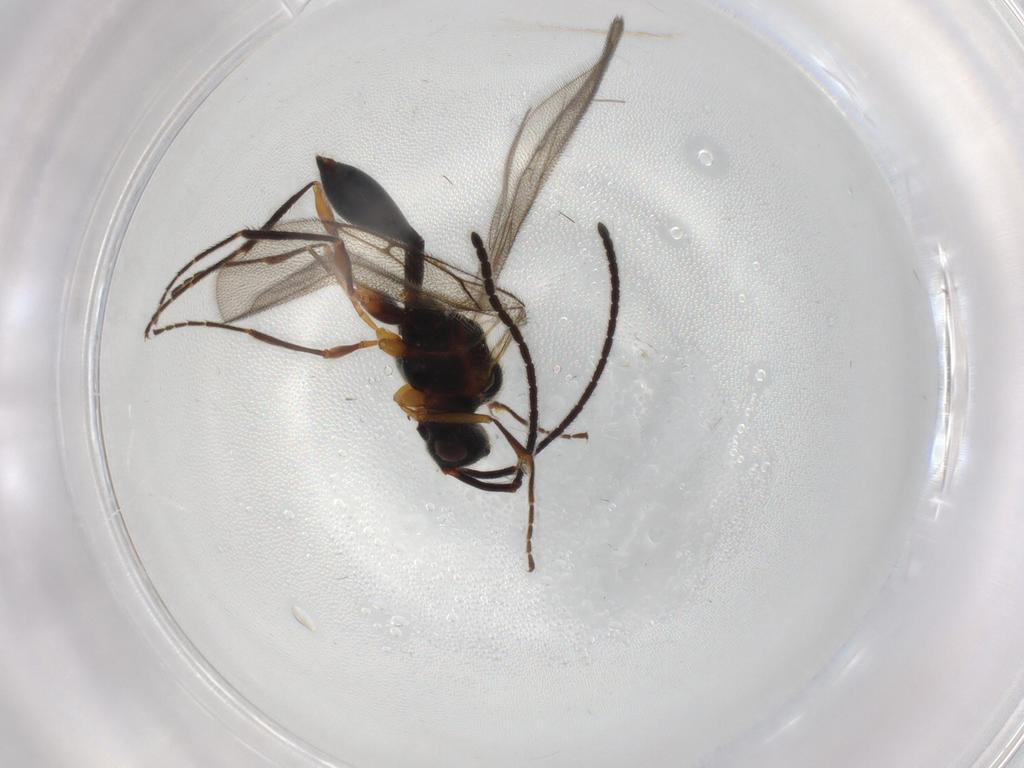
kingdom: Animalia
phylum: Arthropoda
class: Insecta
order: Hymenoptera
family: Diapriidae
